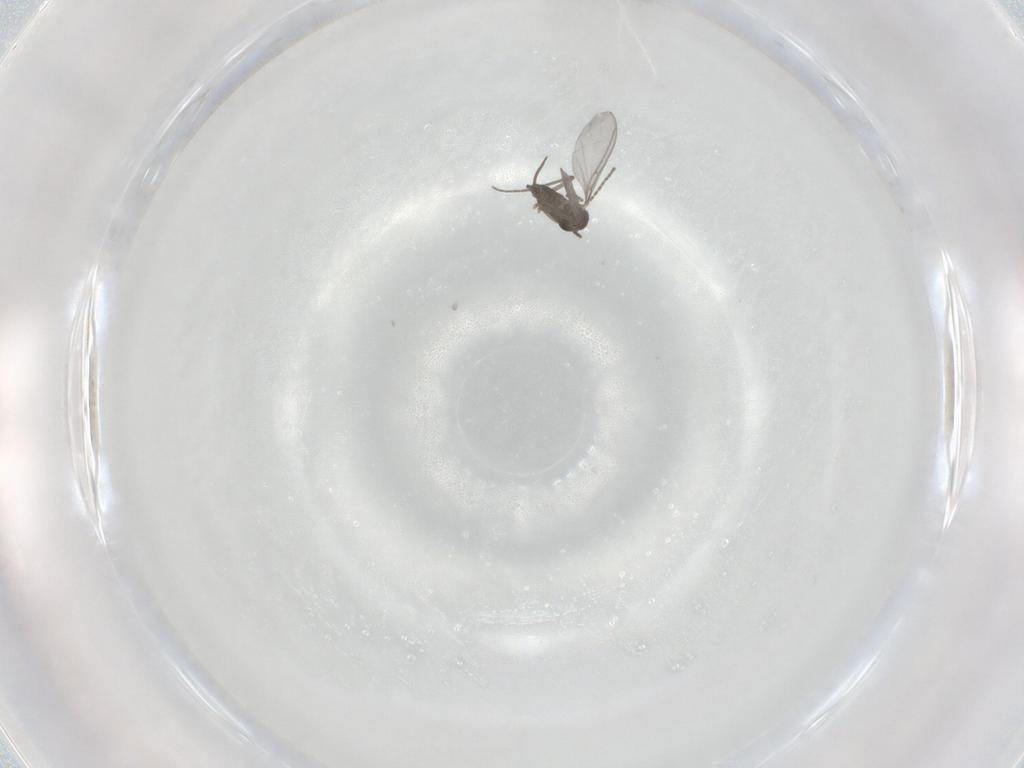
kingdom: Animalia
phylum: Arthropoda
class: Insecta
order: Diptera
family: Sciaridae
